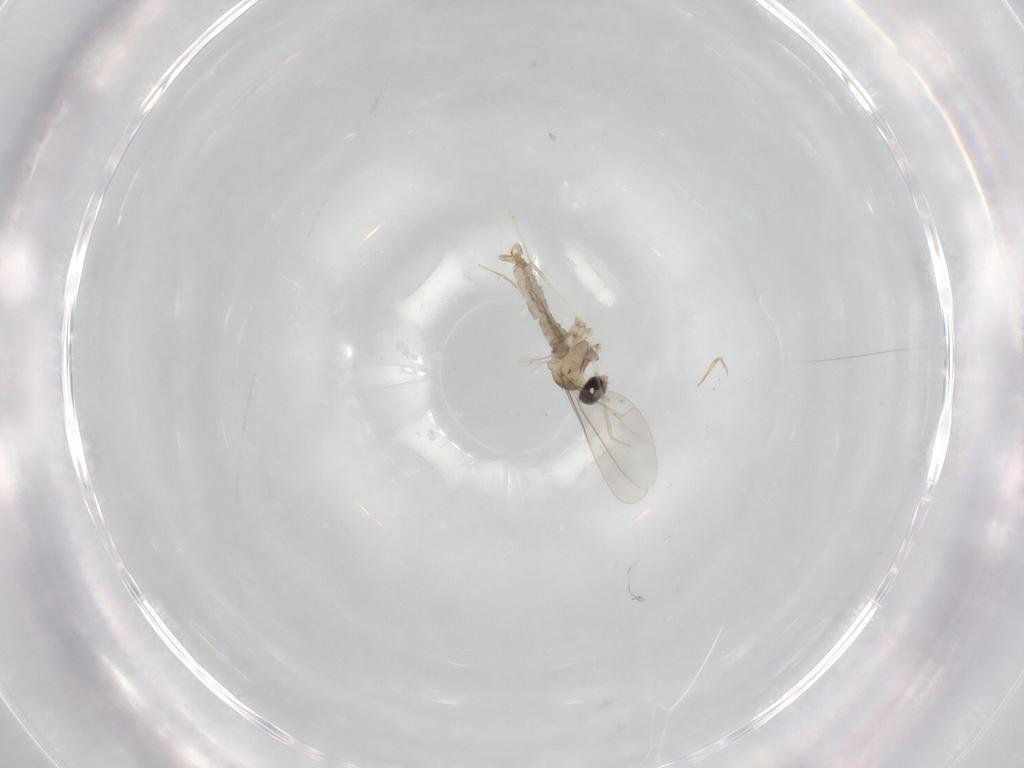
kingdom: Animalia
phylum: Arthropoda
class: Insecta
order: Diptera
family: Cecidomyiidae
